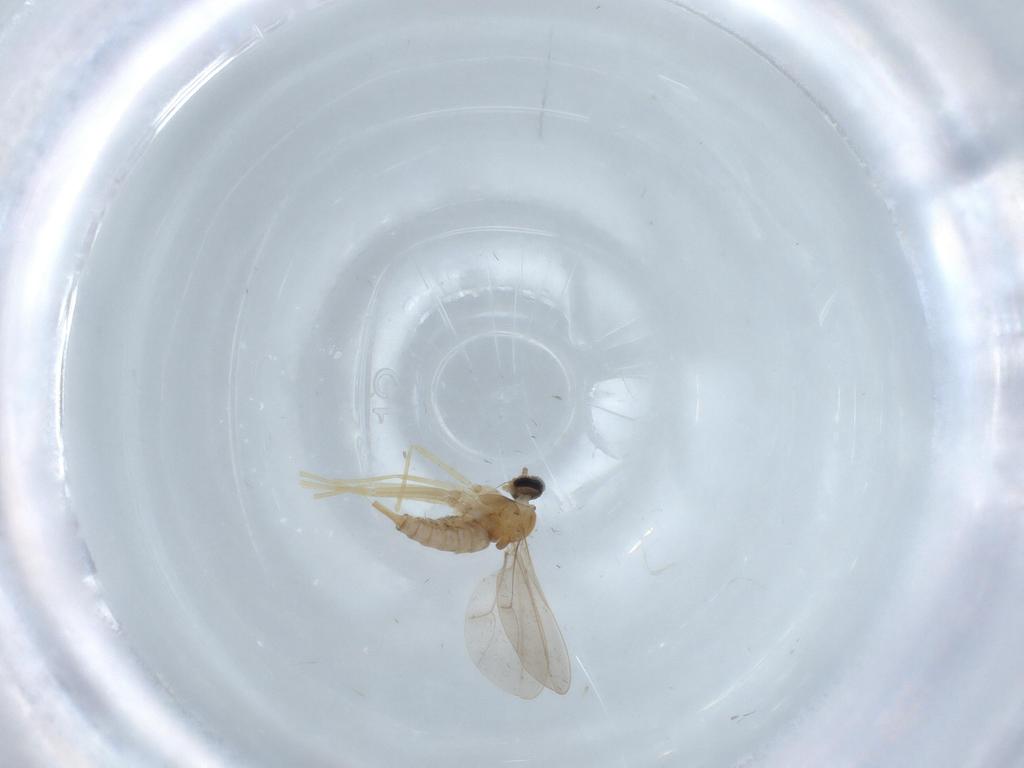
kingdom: Animalia
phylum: Arthropoda
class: Insecta
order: Diptera
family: Cecidomyiidae
